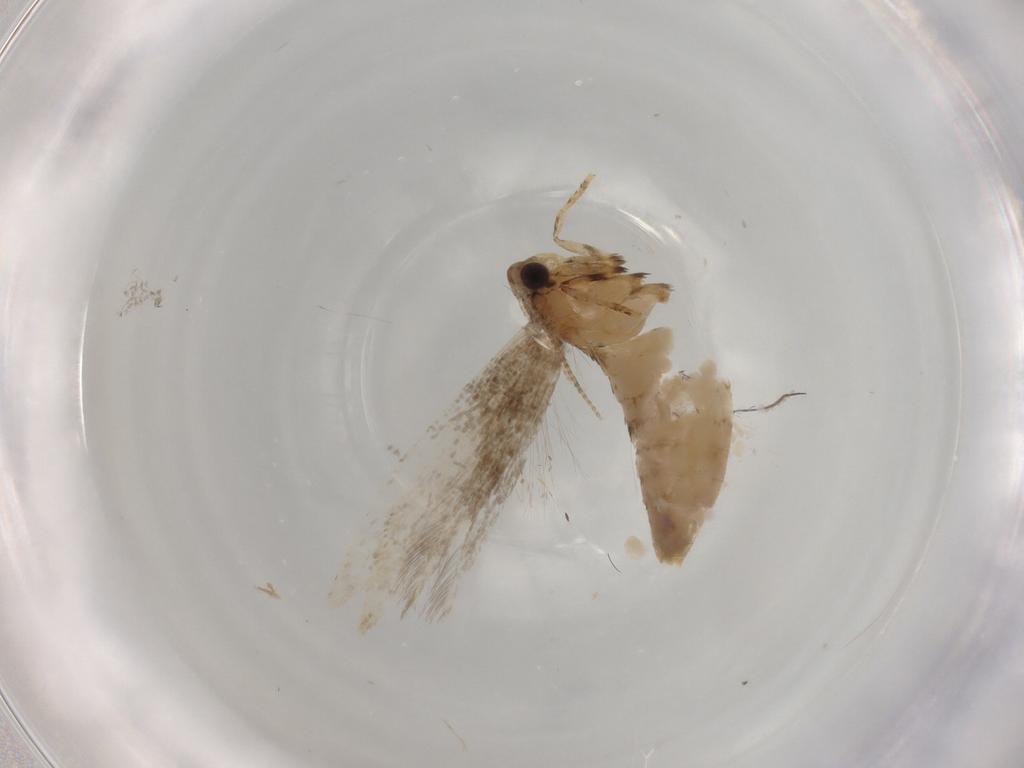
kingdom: Animalia
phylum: Arthropoda
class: Insecta
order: Lepidoptera
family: Tineidae
